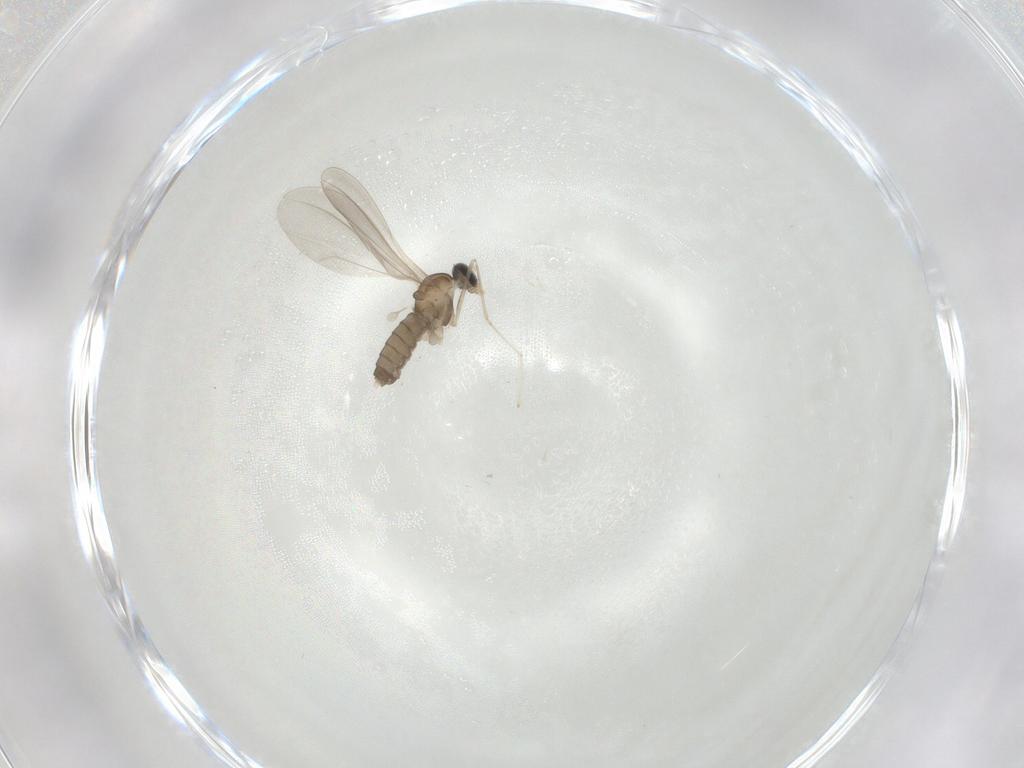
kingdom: Animalia
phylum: Arthropoda
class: Insecta
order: Diptera
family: Cecidomyiidae
